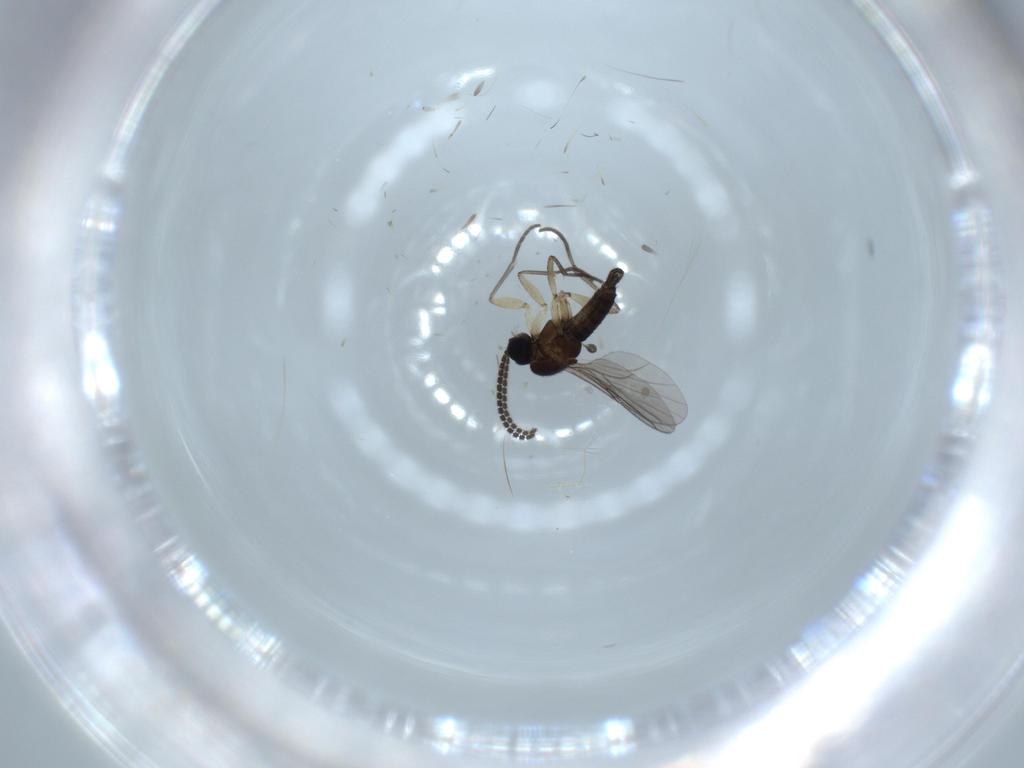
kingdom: Animalia
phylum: Arthropoda
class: Insecta
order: Diptera
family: Sciaridae
